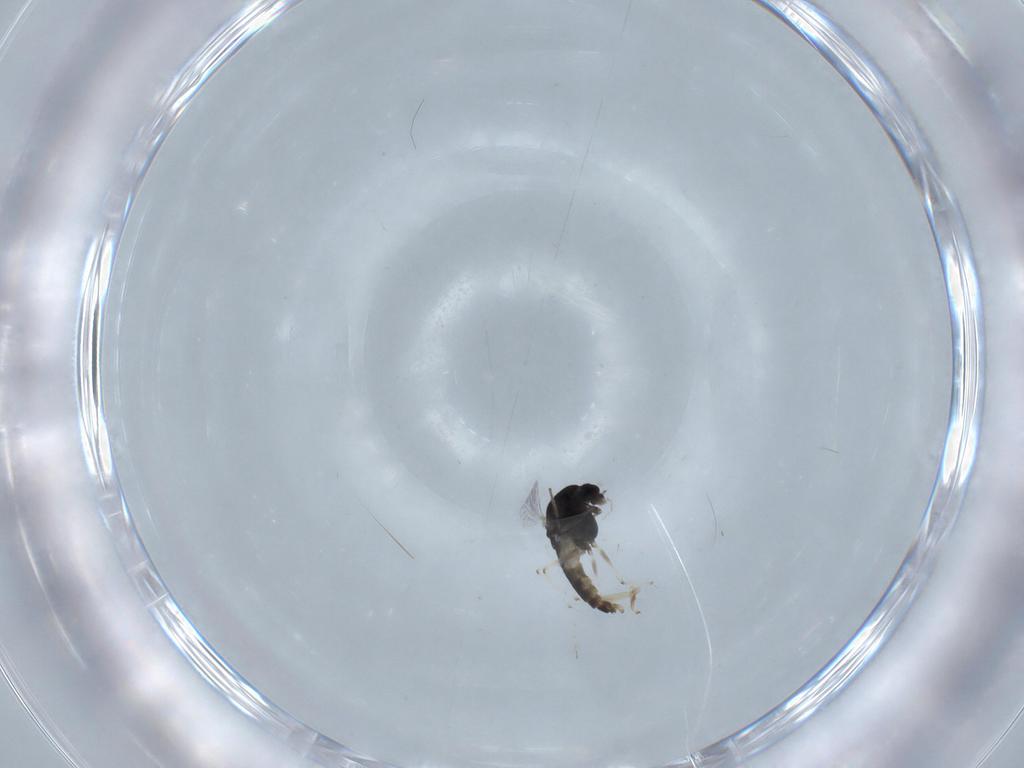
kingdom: Animalia
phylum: Arthropoda
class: Insecta
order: Diptera
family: Chironomidae
